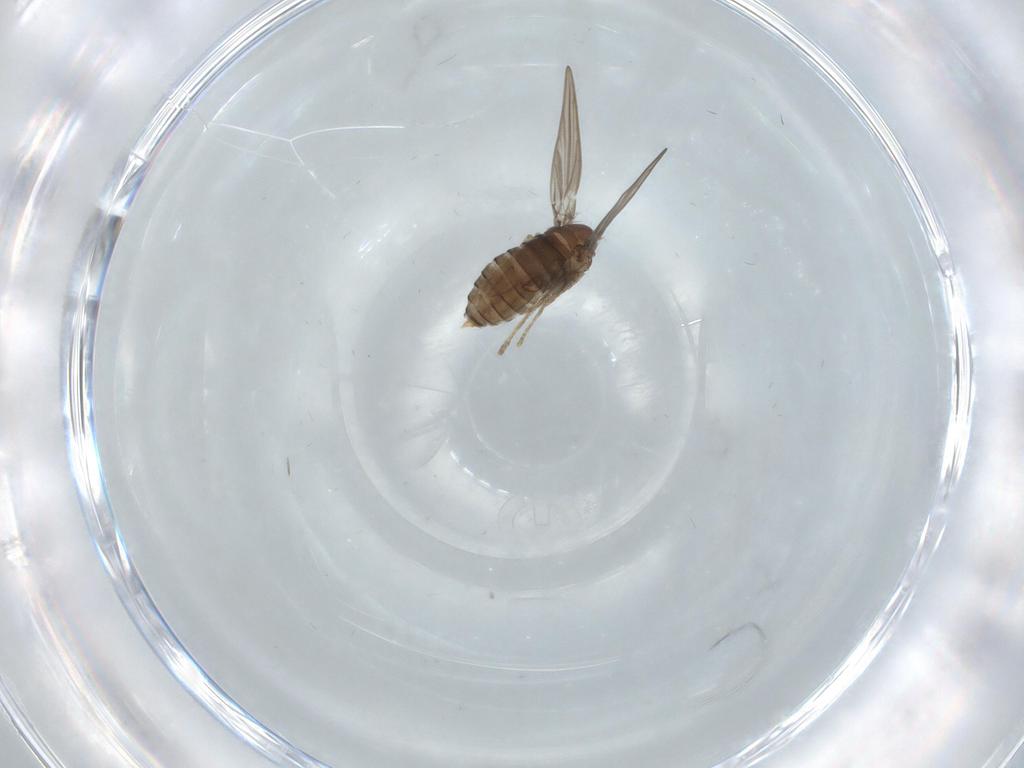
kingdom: Animalia
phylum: Arthropoda
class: Insecta
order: Diptera
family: Psychodidae
